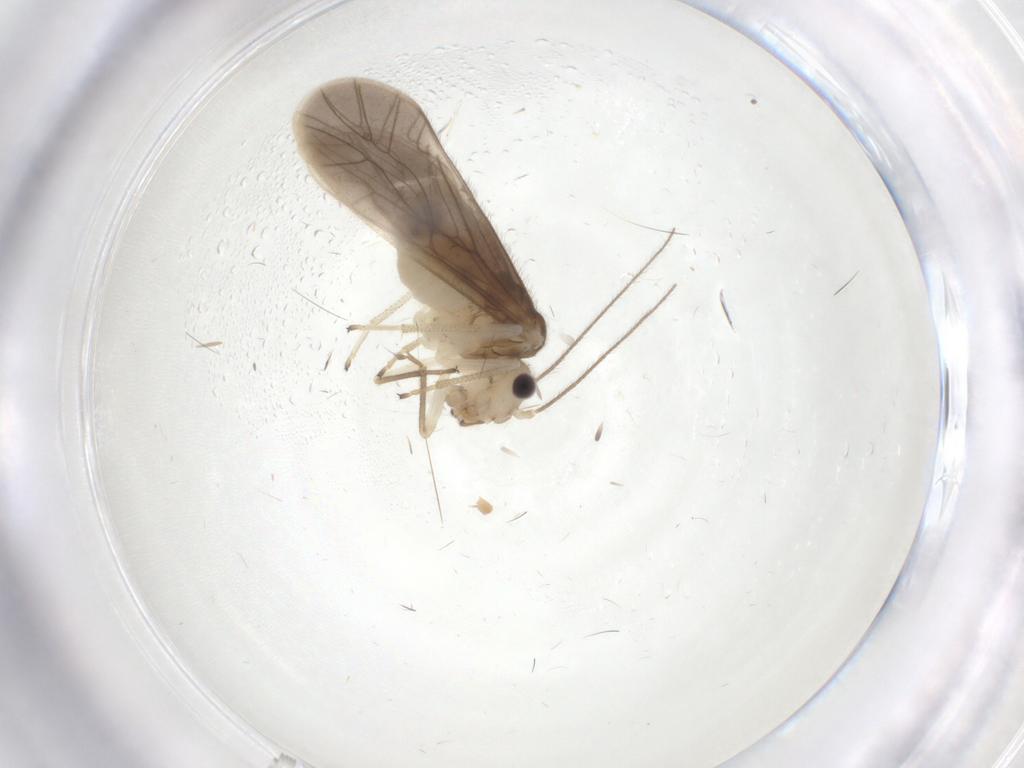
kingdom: Animalia
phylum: Arthropoda
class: Insecta
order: Psocodea
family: Caeciliusidae
